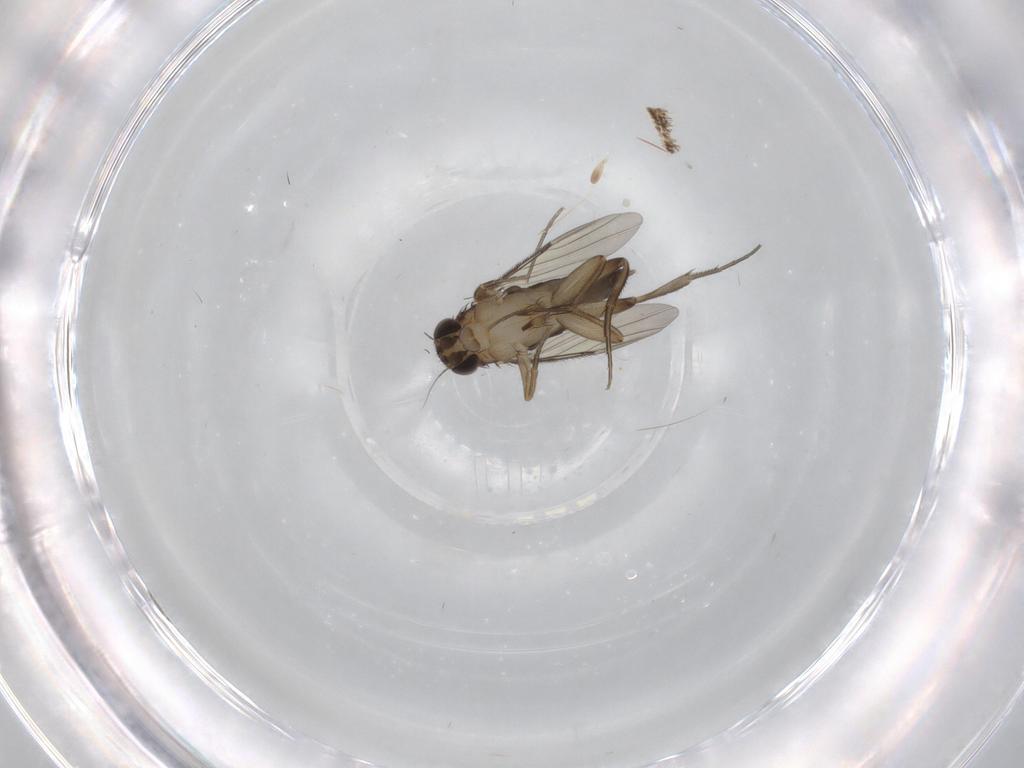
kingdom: Animalia
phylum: Arthropoda
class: Insecta
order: Diptera
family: Phoridae
